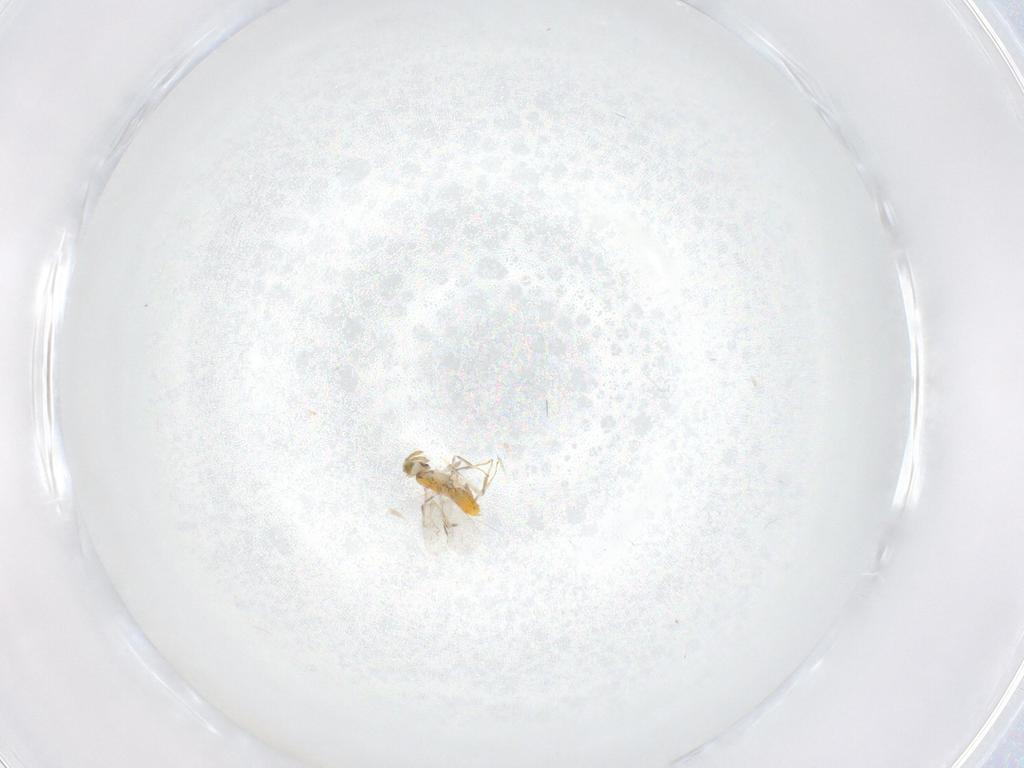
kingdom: Animalia
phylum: Arthropoda
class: Insecta
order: Hymenoptera
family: Aphelinidae
